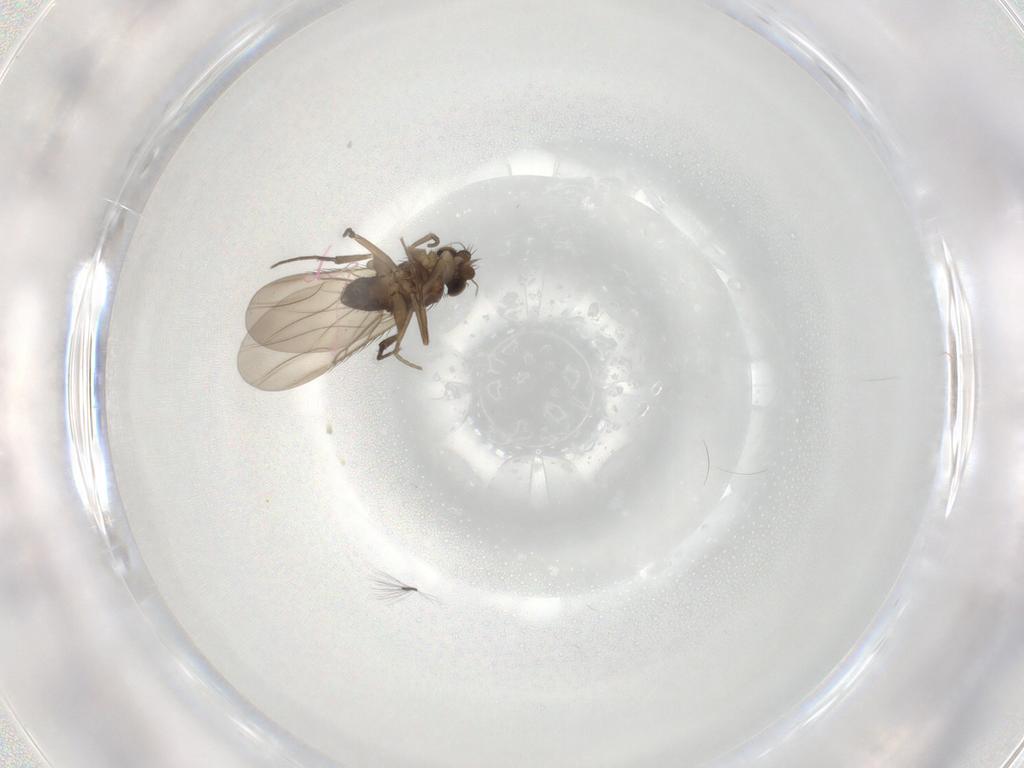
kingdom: Animalia
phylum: Arthropoda
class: Insecta
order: Diptera
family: Phoridae
